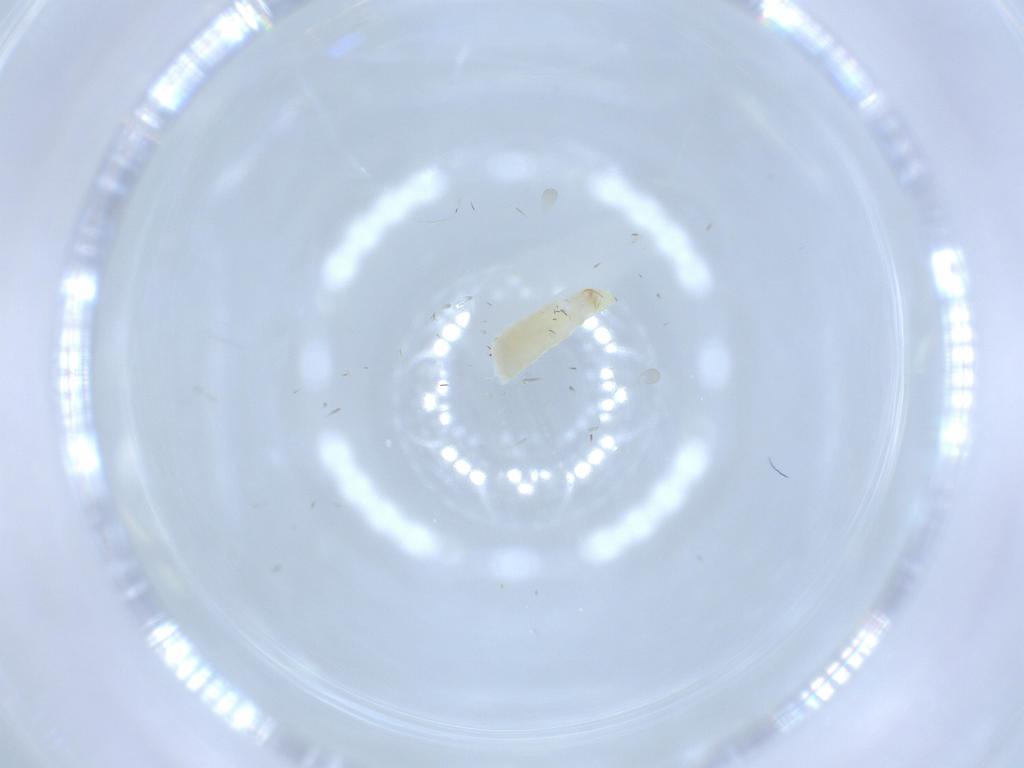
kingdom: Animalia
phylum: Arthropoda
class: Insecta
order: Hemiptera
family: Cicadellidae
